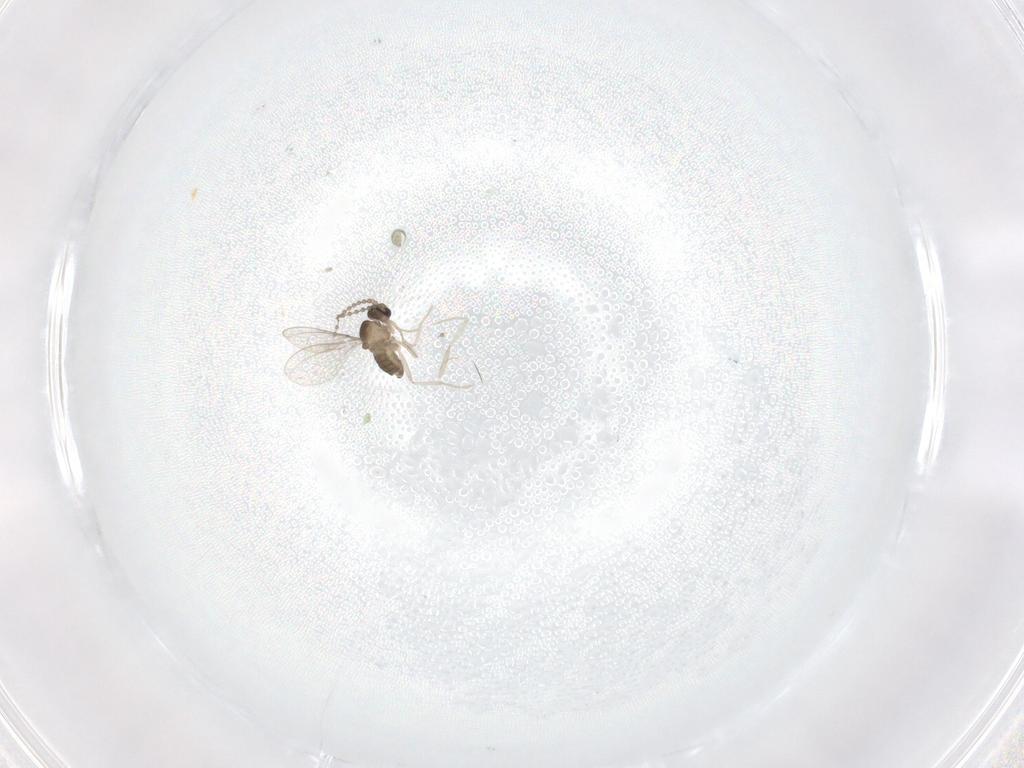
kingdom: Animalia
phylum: Arthropoda
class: Insecta
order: Diptera
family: Cecidomyiidae
